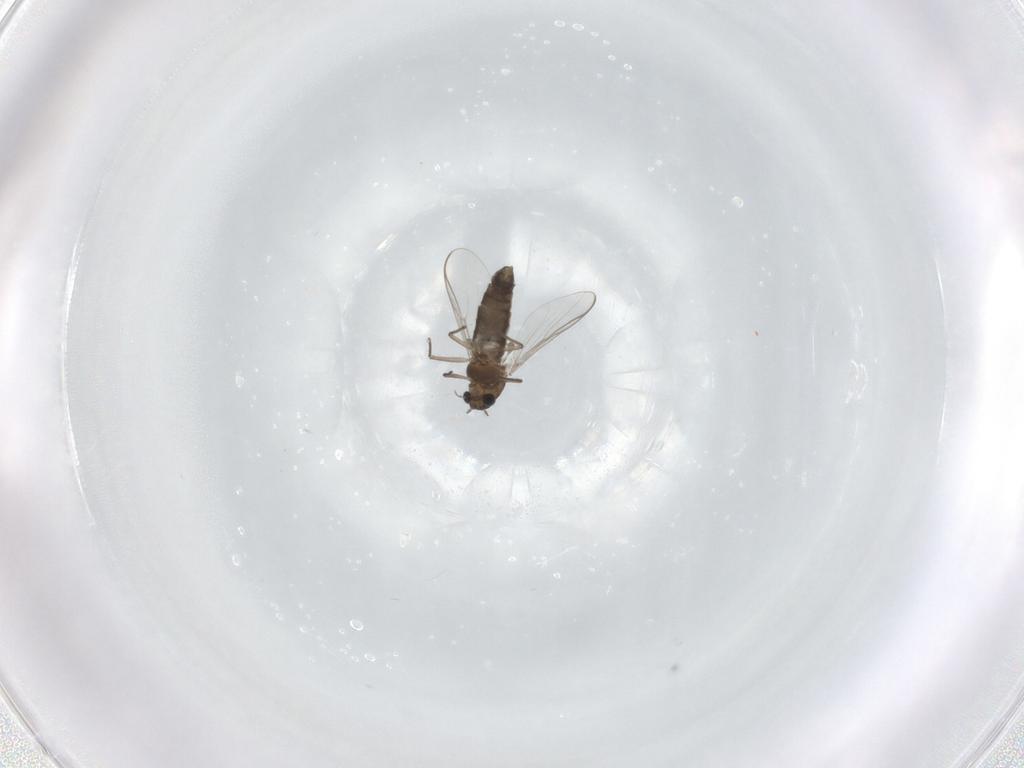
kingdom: Animalia
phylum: Arthropoda
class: Insecta
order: Diptera
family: Chironomidae
